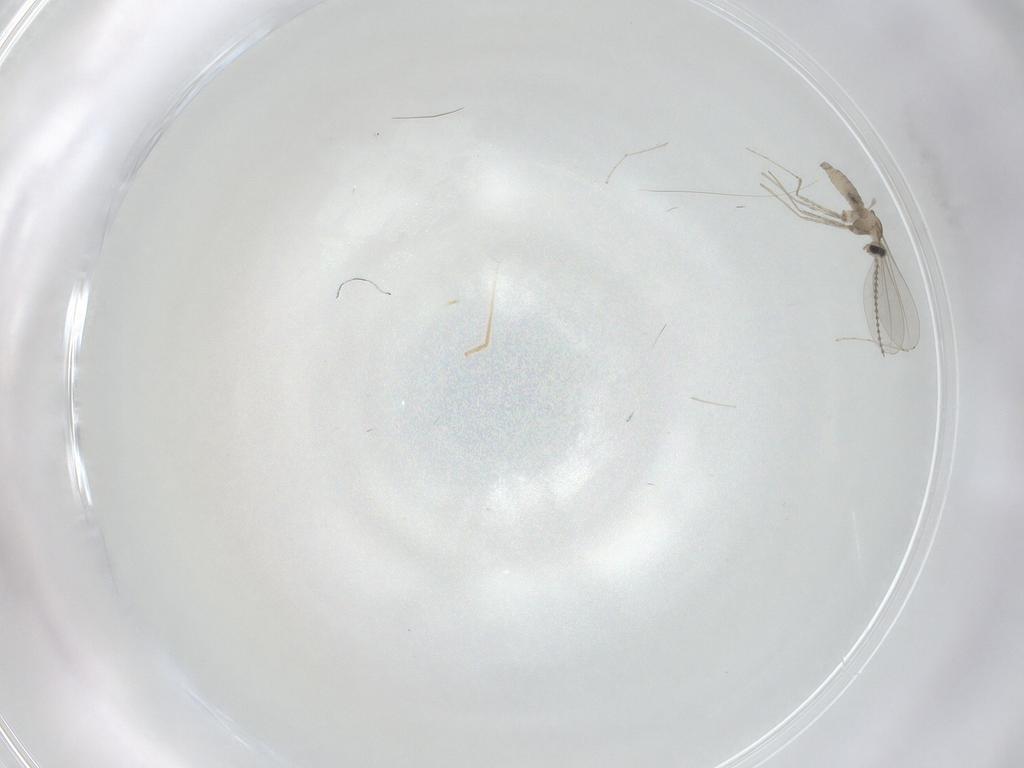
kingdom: Animalia
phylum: Arthropoda
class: Insecta
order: Diptera
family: Cecidomyiidae
